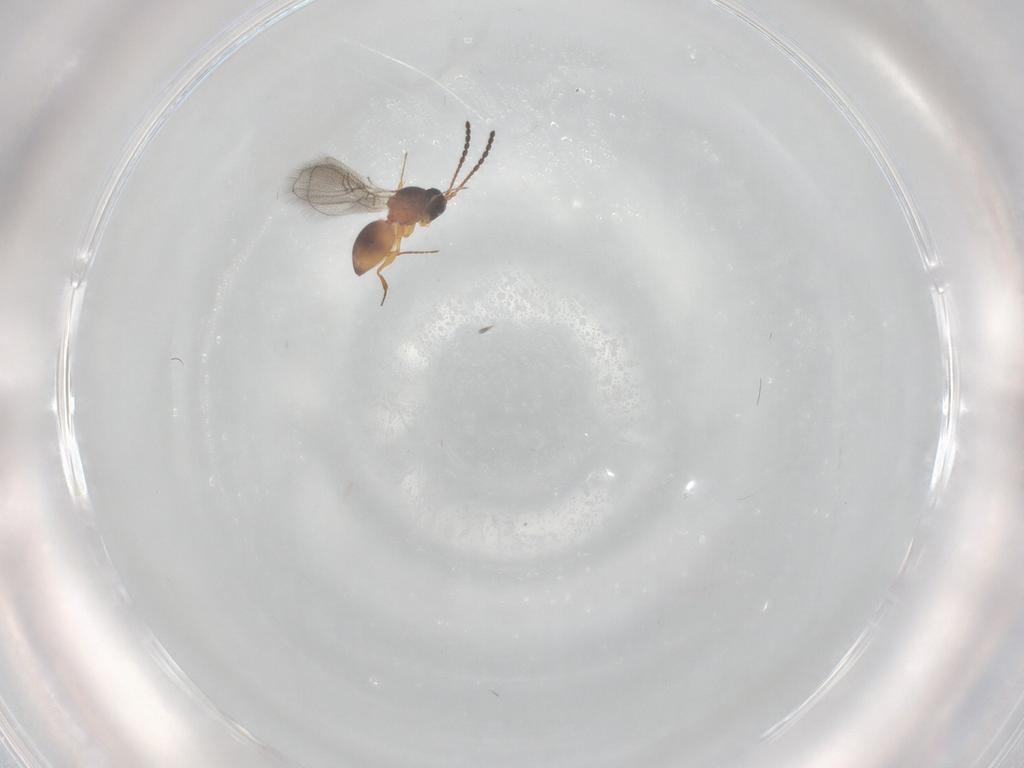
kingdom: Animalia
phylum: Arthropoda
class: Insecta
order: Hymenoptera
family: Figitidae
